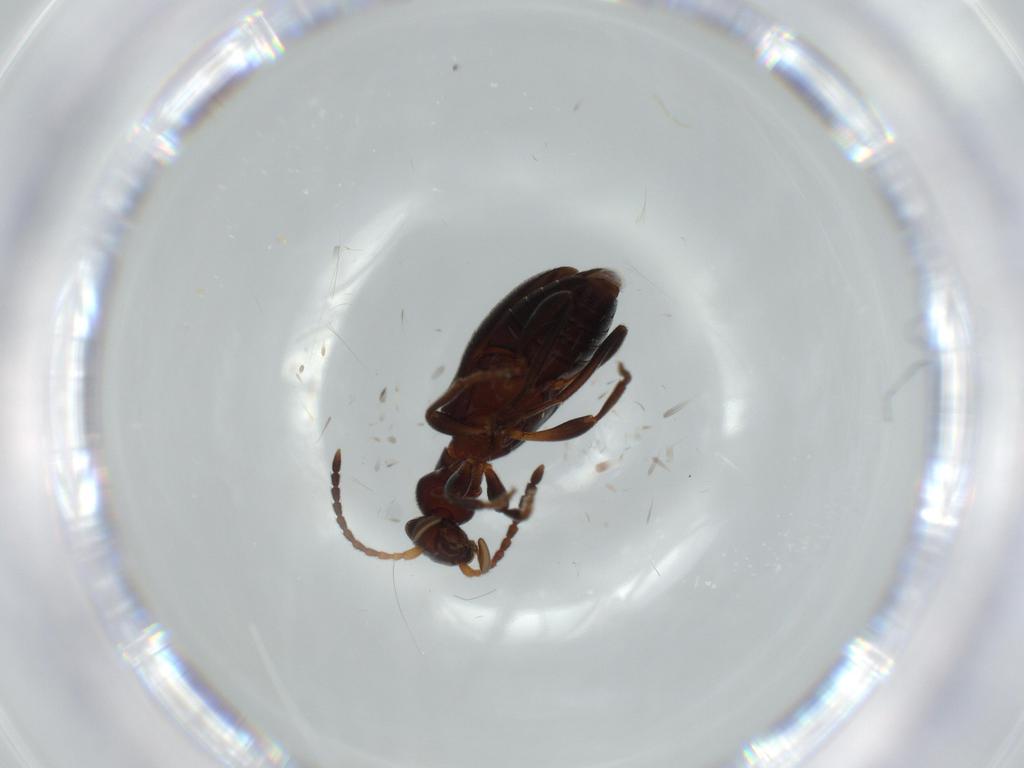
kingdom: Animalia
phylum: Arthropoda
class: Insecta
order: Coleoptera
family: Anthicidae
